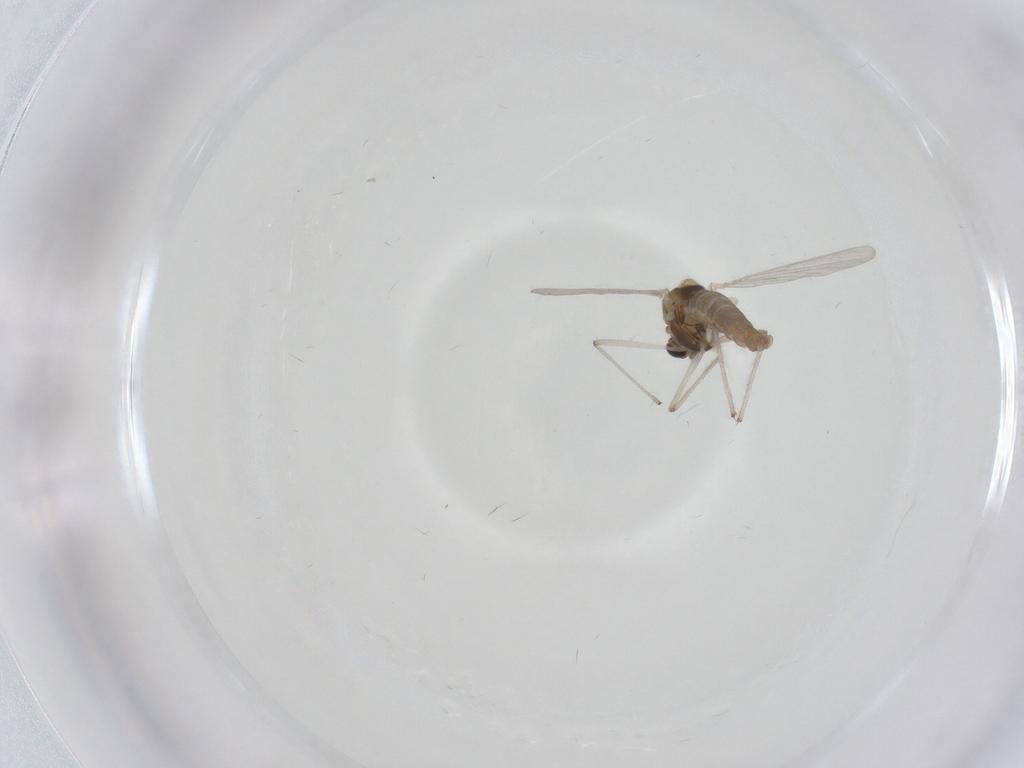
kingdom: Animalia
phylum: Arthropoda
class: Insecta
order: Diptera
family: Chironomidae
